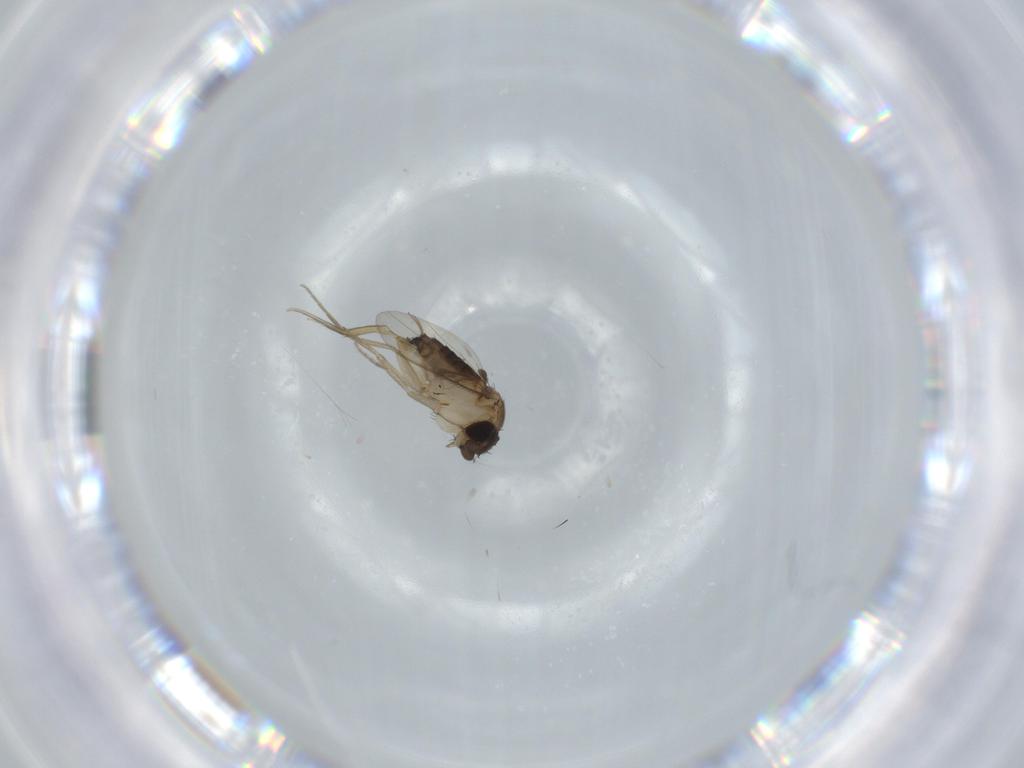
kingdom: Animalia
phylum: Arthropoda
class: Insecta
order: Diptera
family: Phoridae
